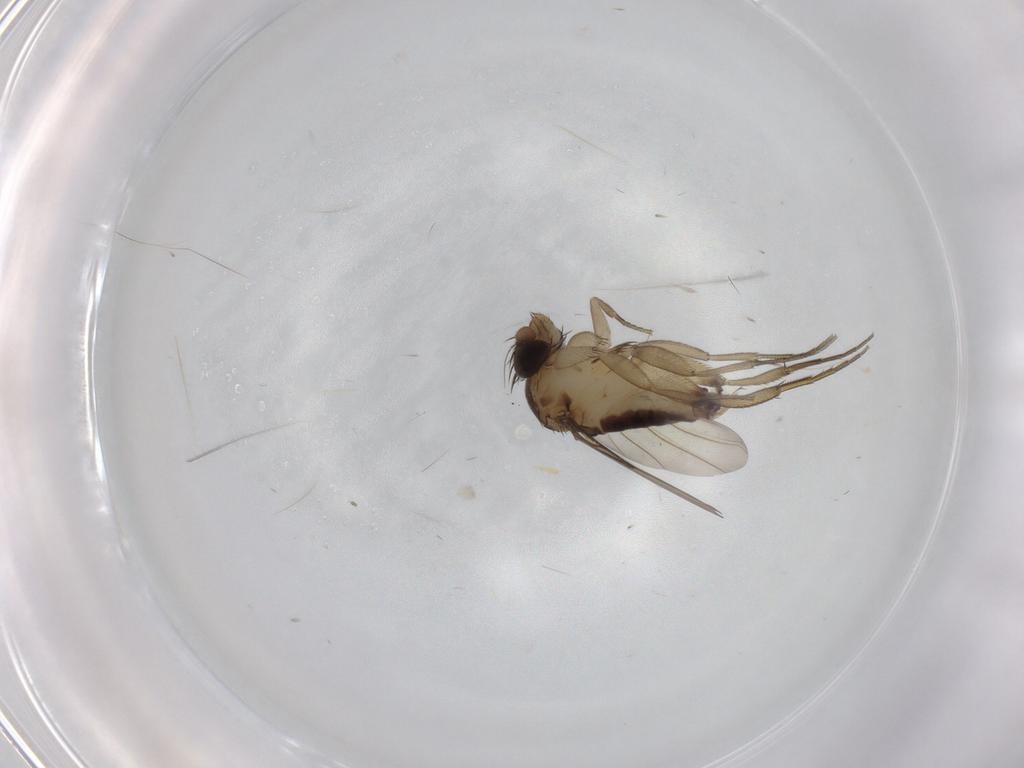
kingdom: Animalia
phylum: Arthropoda
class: Insecta
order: Diptera
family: Phoridae
